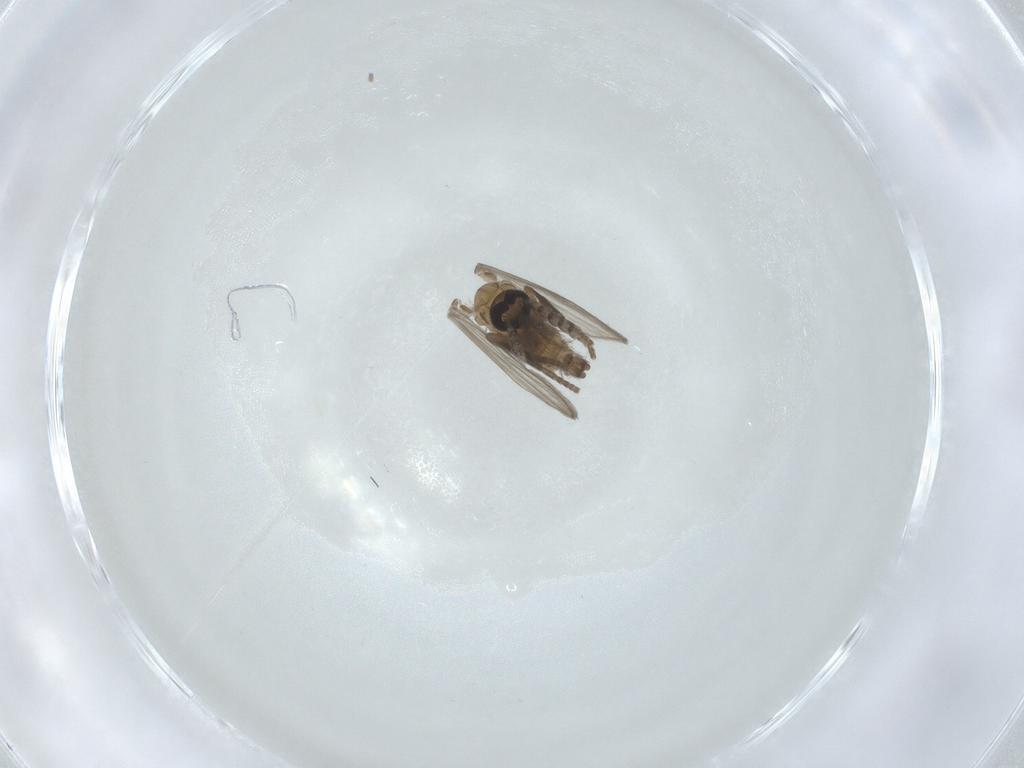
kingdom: Animalia
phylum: Arthropoda
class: Insecta
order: Diptera
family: Psychodidae
